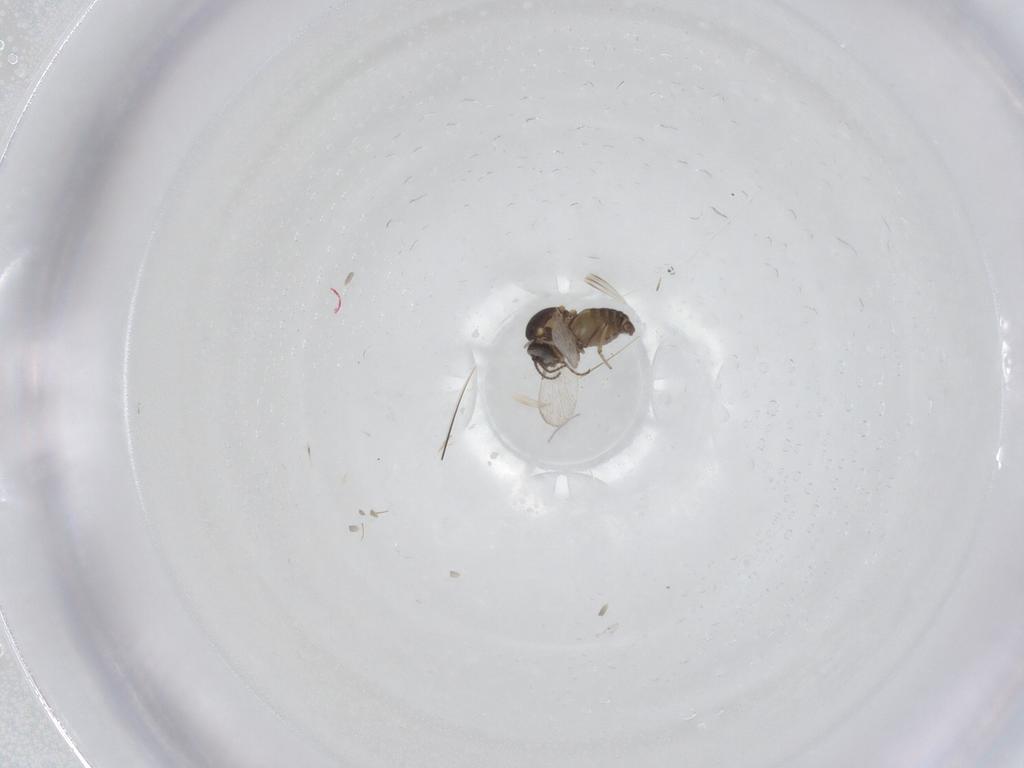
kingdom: Animalia
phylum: Arthropoda
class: Insecta
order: Diptera
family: Ceratopogonidae
